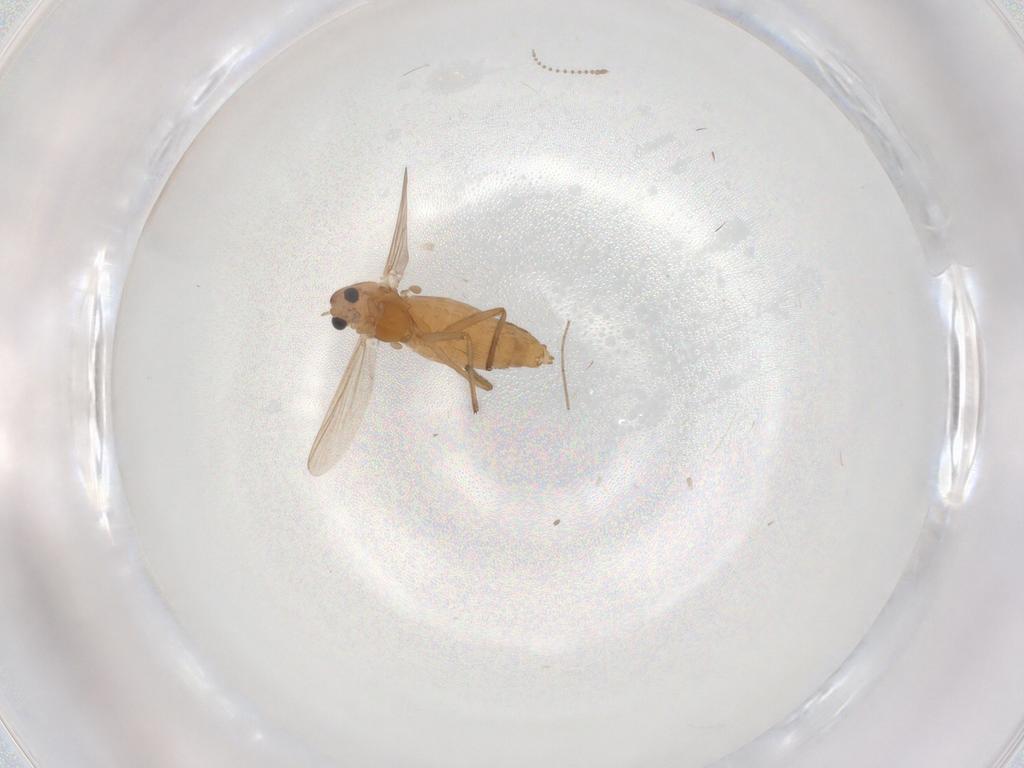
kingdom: Animalia
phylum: Arthropoda
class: Insecta
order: Diptera
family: Chironomidae
